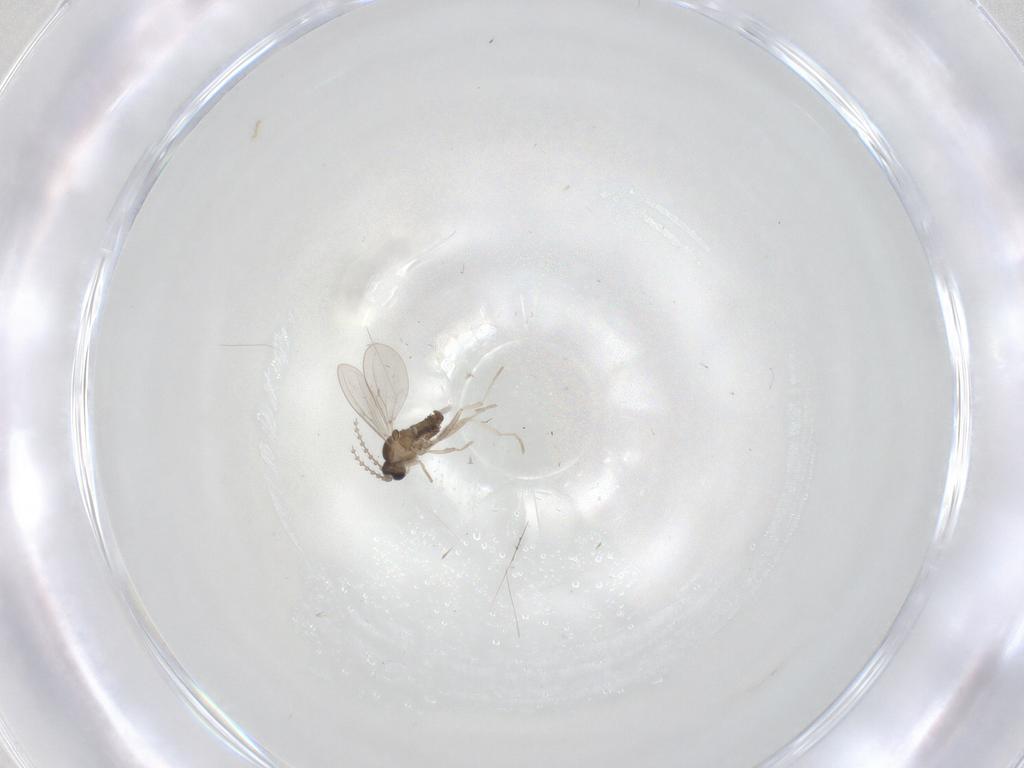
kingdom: Animalia
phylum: Arthropoda
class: Insecta
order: Diptera
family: Cecidomyiidae
